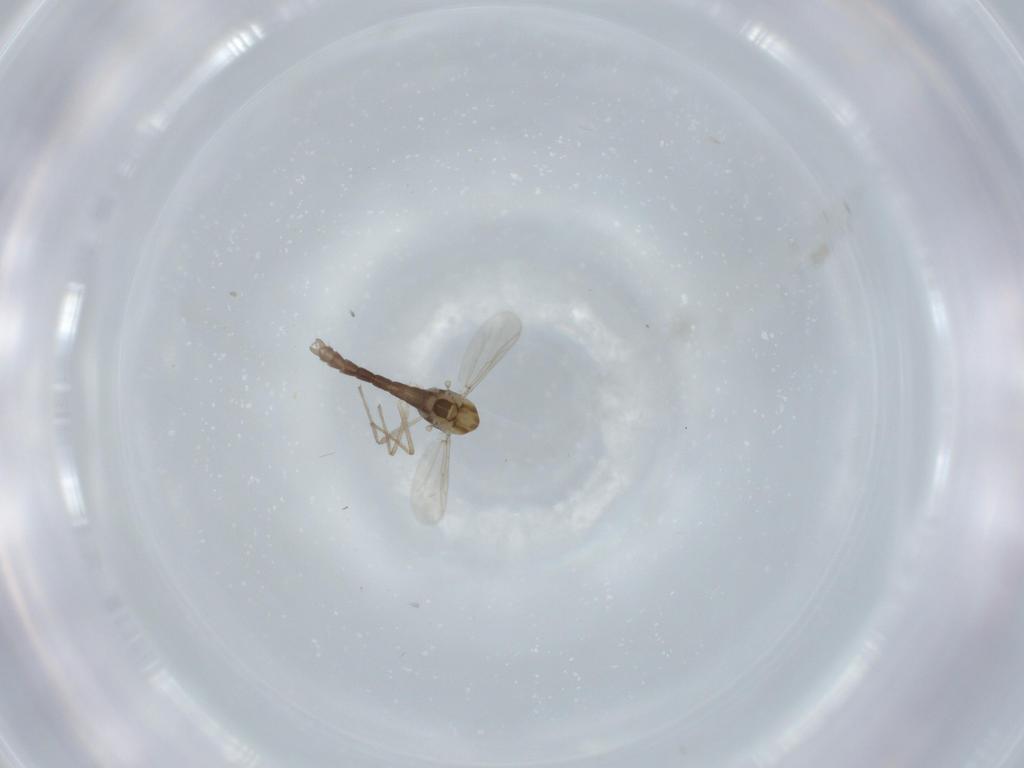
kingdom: Animalia
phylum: Arthropoda
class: Insecta
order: Diptera
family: Chironomidae
